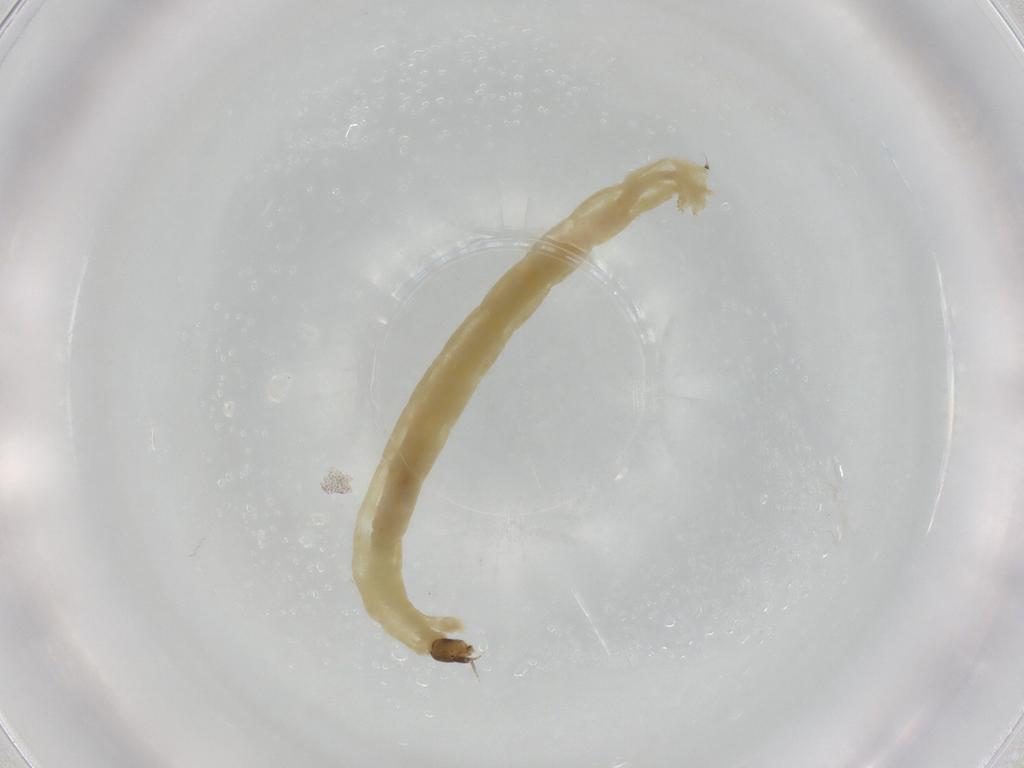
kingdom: Animalia
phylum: Arthropoda
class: Insecta
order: Diptera
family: Chironomidae
